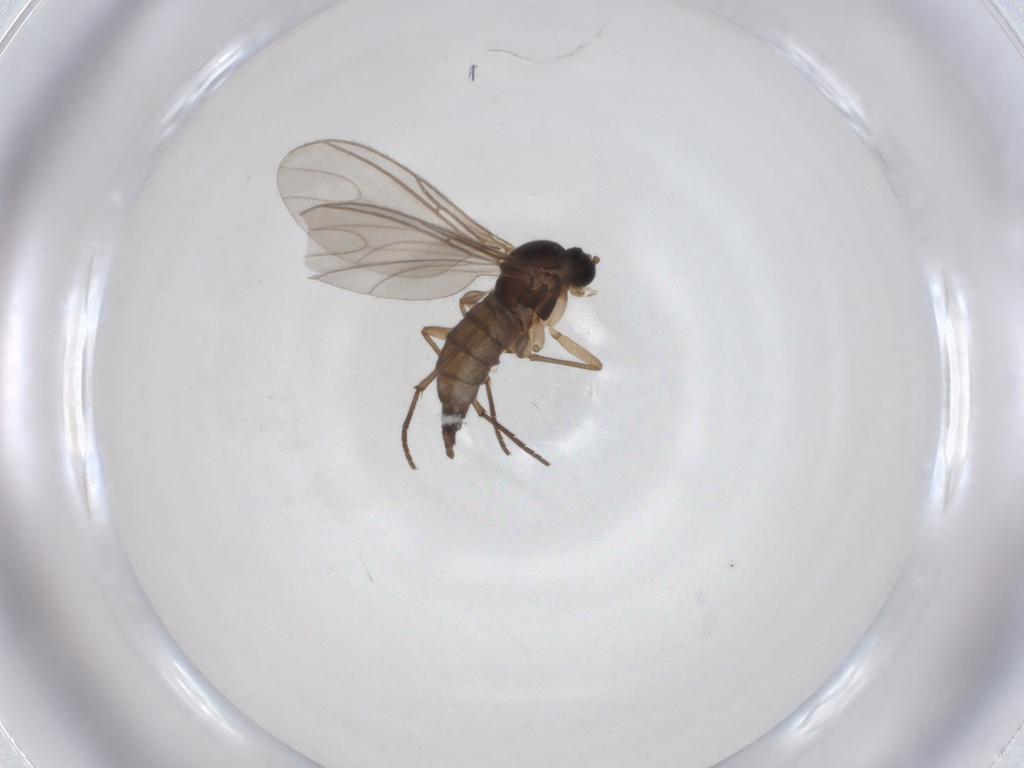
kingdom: Animalia
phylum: Arthropoda
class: Insecta
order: Diptera
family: Sciaridae
